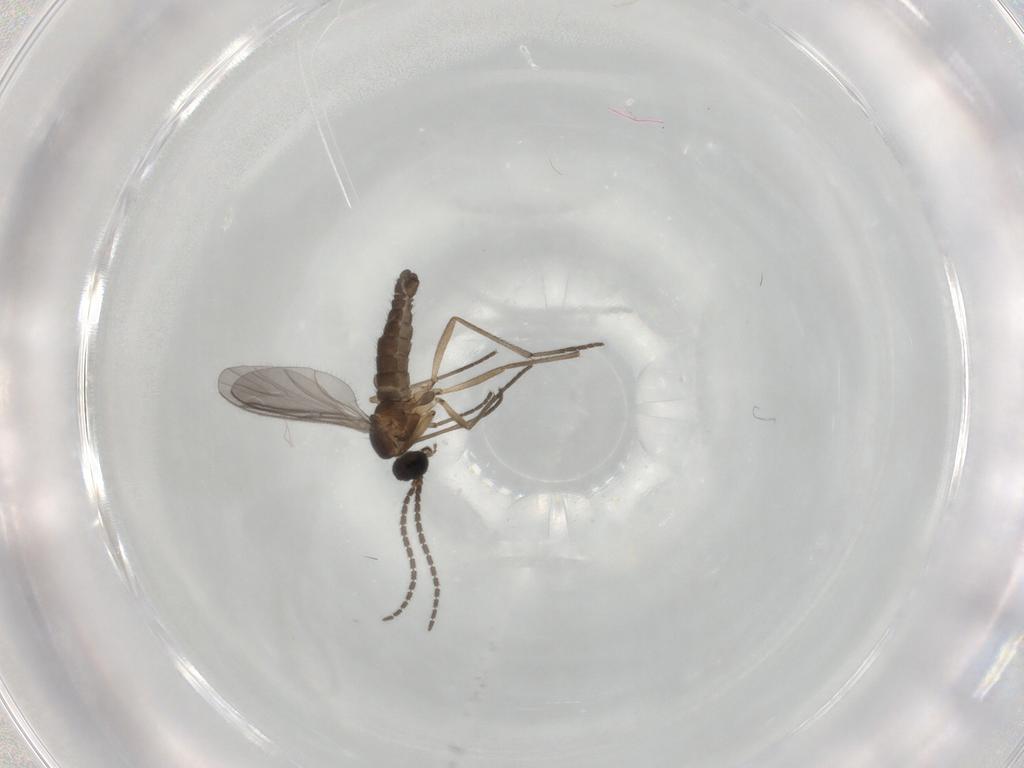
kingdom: Animalia
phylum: Arthropoda
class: Insecta
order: Diptera
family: Sciaridae
